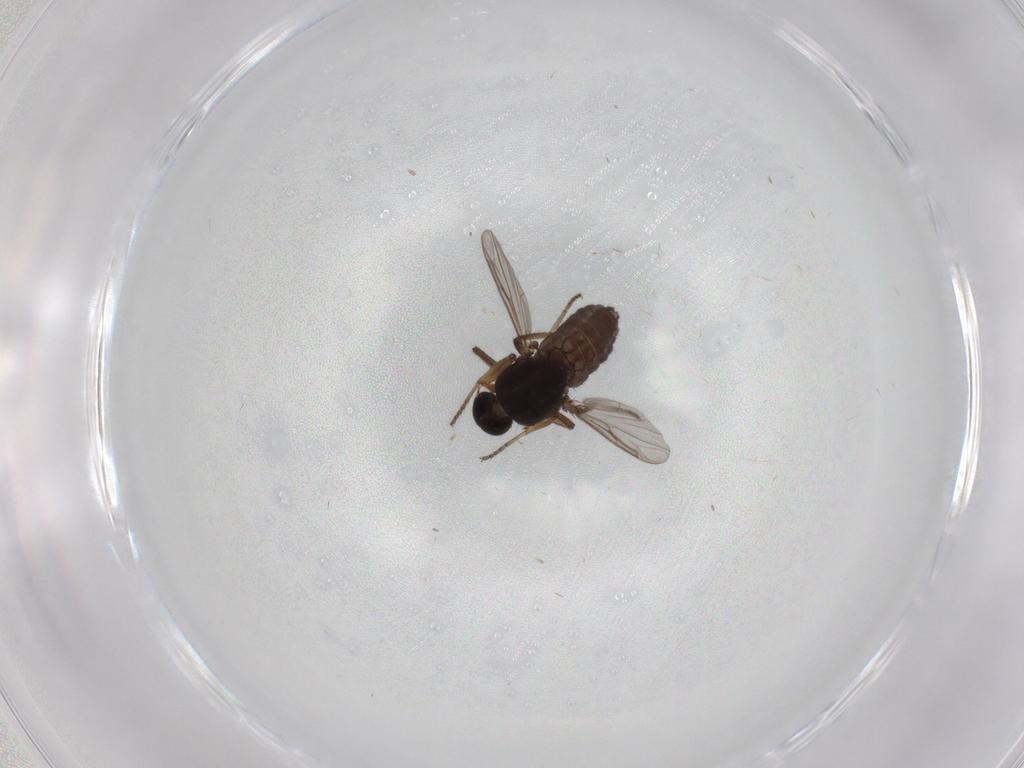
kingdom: Animalia
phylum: Arthropoda
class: Insecta
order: Diptera
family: Ceratopogonidae
